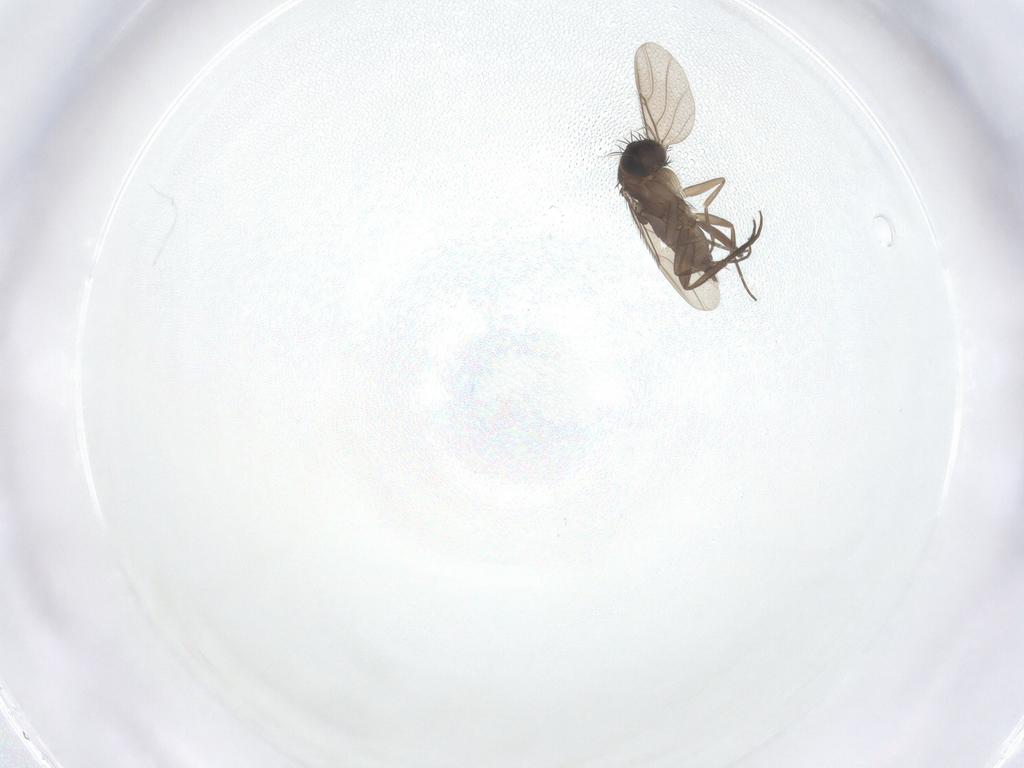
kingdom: Animalia
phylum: Arthropoda
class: Insecta
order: Diptera
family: Phoridae
